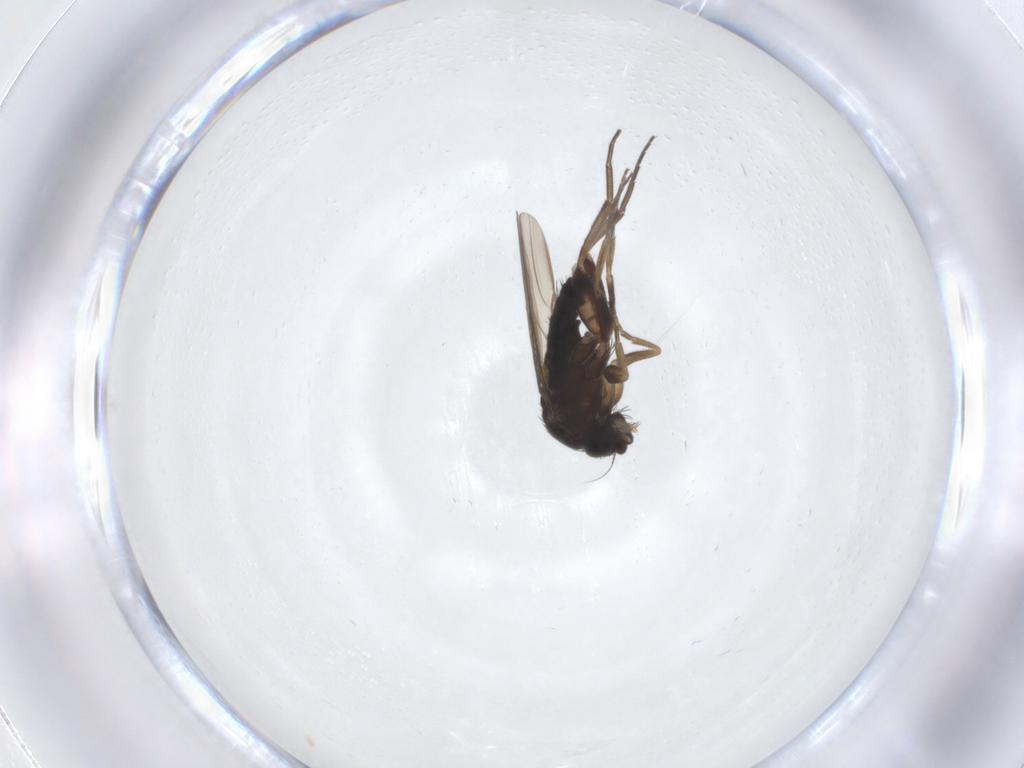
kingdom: Animalia
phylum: Arthropoda
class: Insecta
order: Diptera
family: Phoridae
